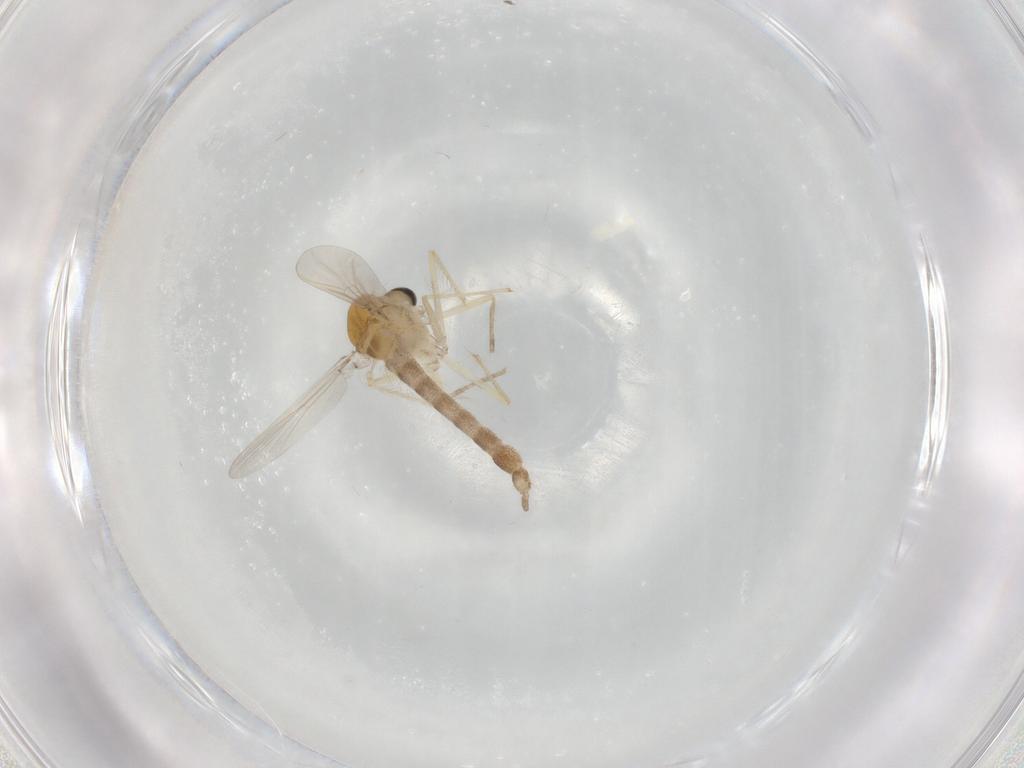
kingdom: Animalia
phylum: Arthropoda
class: Insecta
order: Diptera
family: Chironomidae
